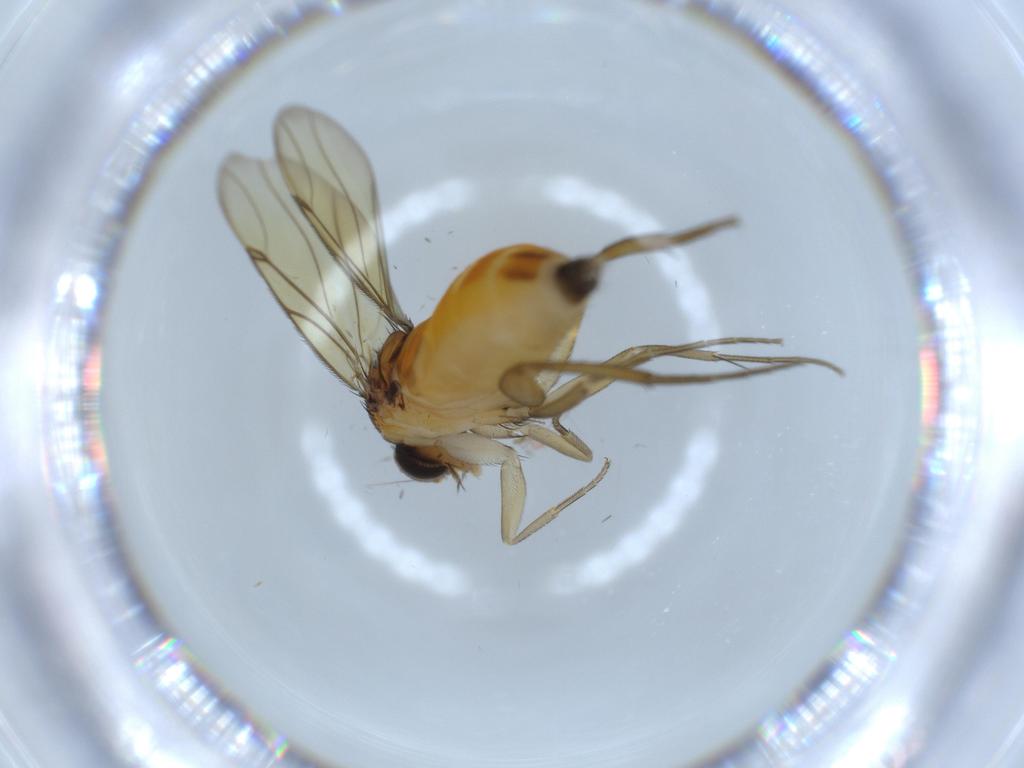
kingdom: Animalia
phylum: Arthropoda
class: Insecta
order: Diptera
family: Phoridae
